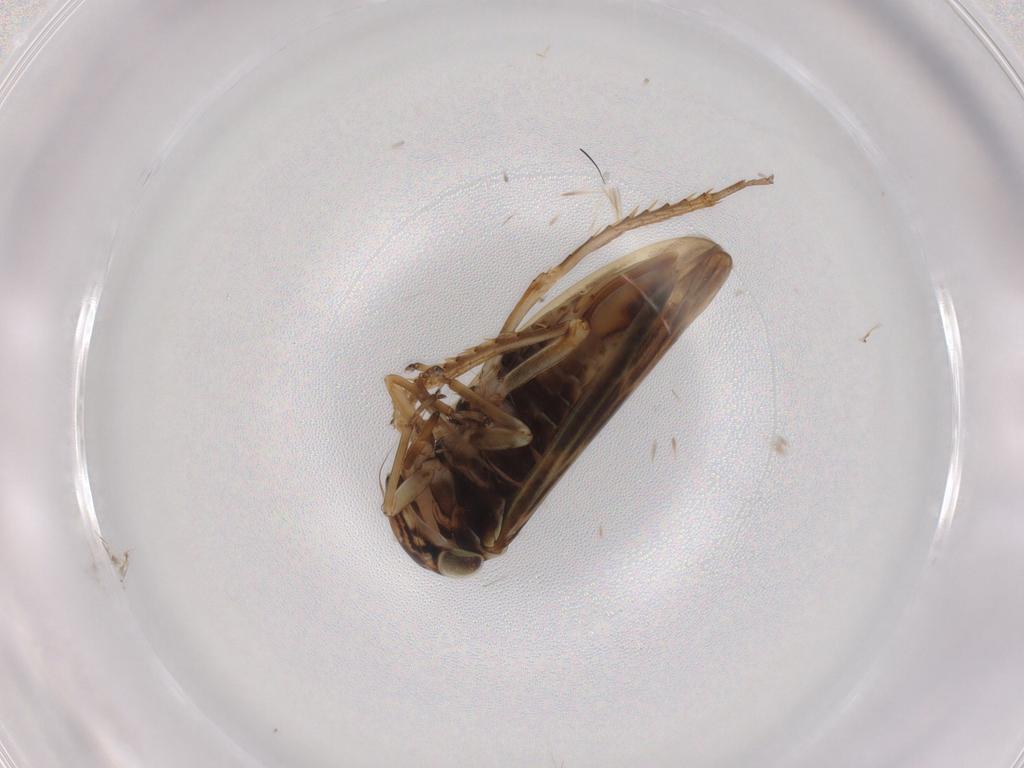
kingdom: Animalia
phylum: Arthropoda
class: Insecta
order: Hemiptera
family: Cicadellidae
